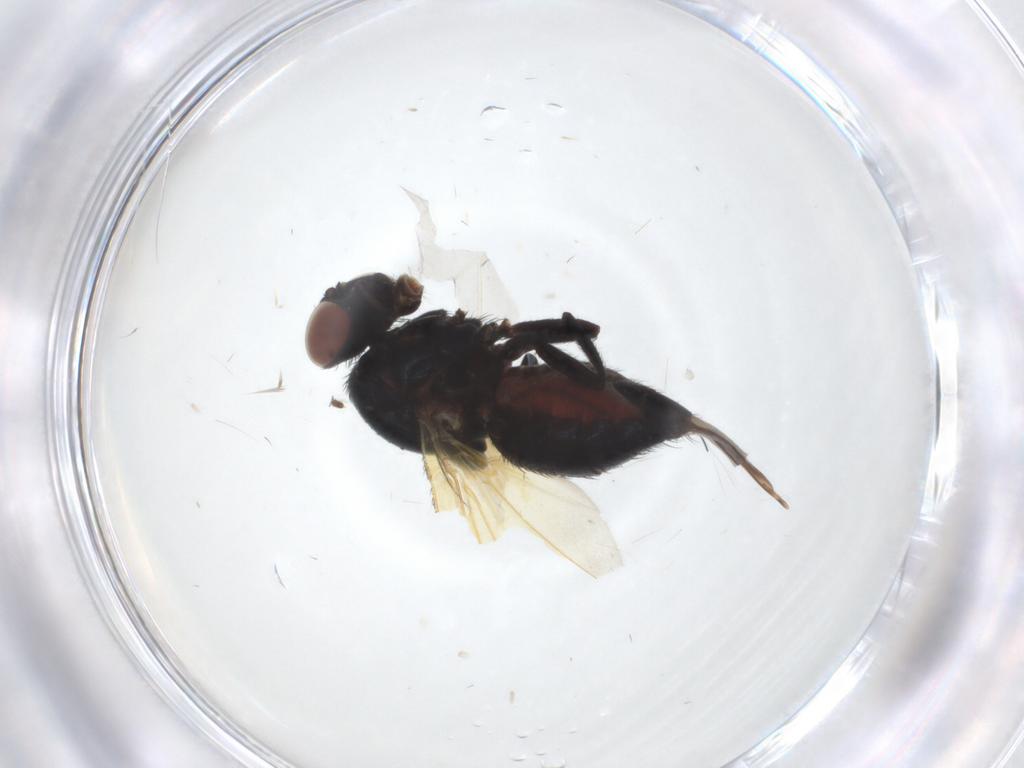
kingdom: Animalia
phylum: Arthropoda
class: Insecta
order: Diptera
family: Lonchaeidae
